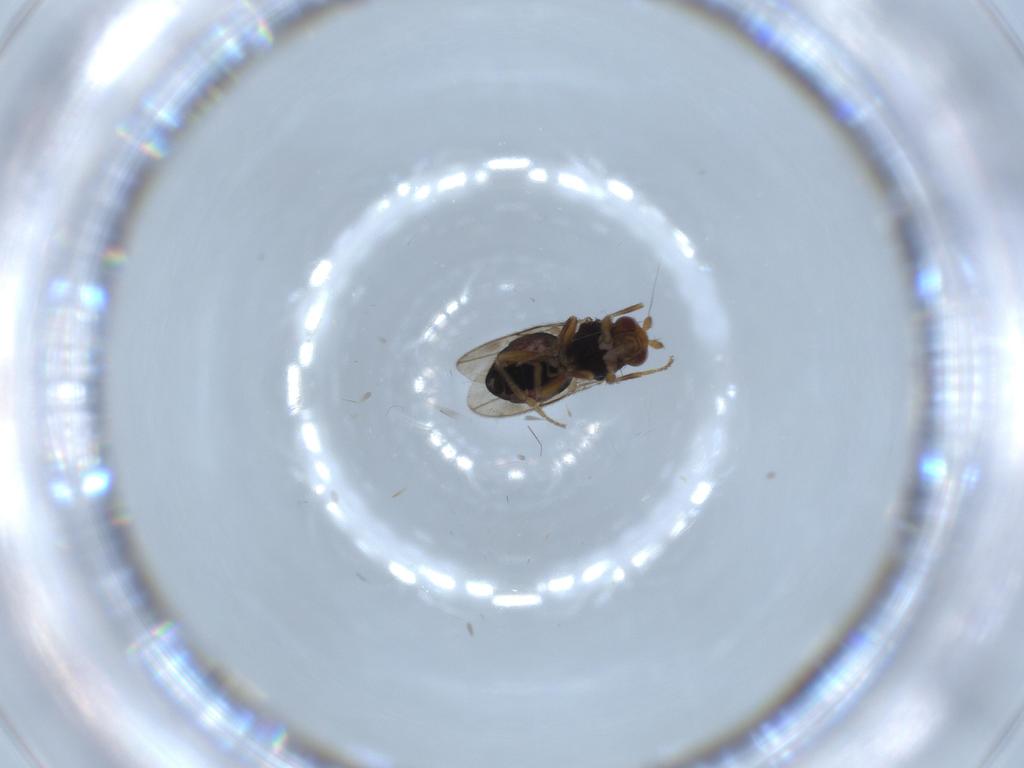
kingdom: Animalia
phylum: Arthropoda
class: Insecta
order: Diptera
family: Sphaeroceridae
